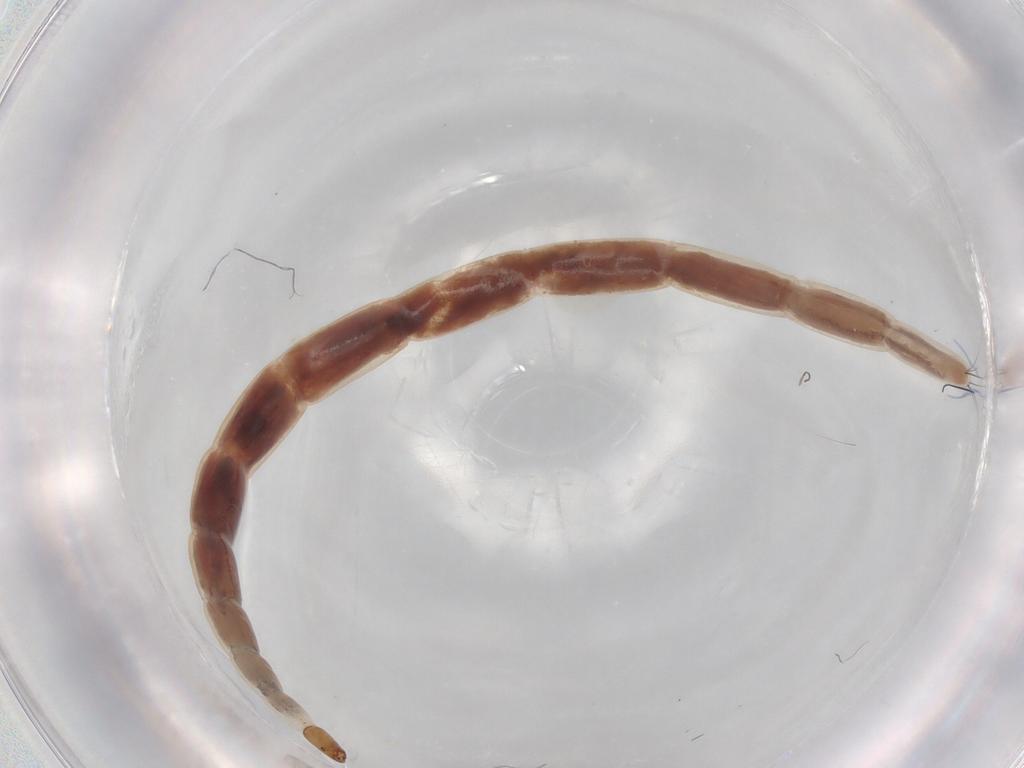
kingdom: Animalia
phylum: Arthropoda
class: Insecta
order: Diptera
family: Ceratopogonidae
